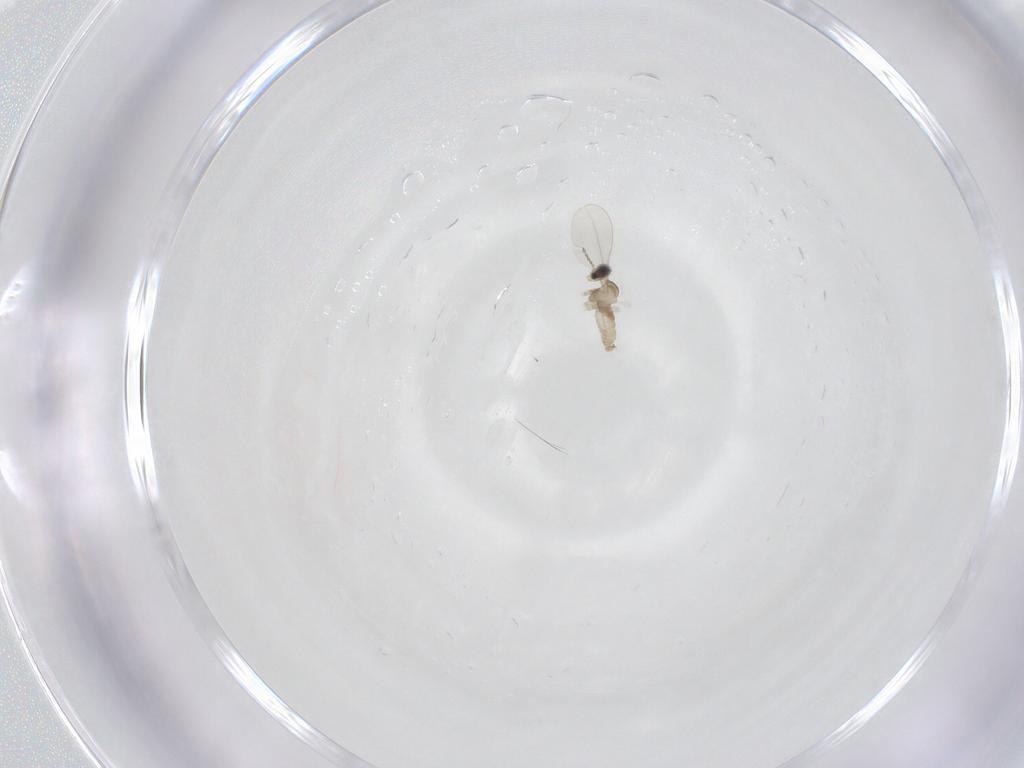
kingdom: Animalia
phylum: Arthropoda
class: Insecta
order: Diptera
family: Cecidomyiidae
